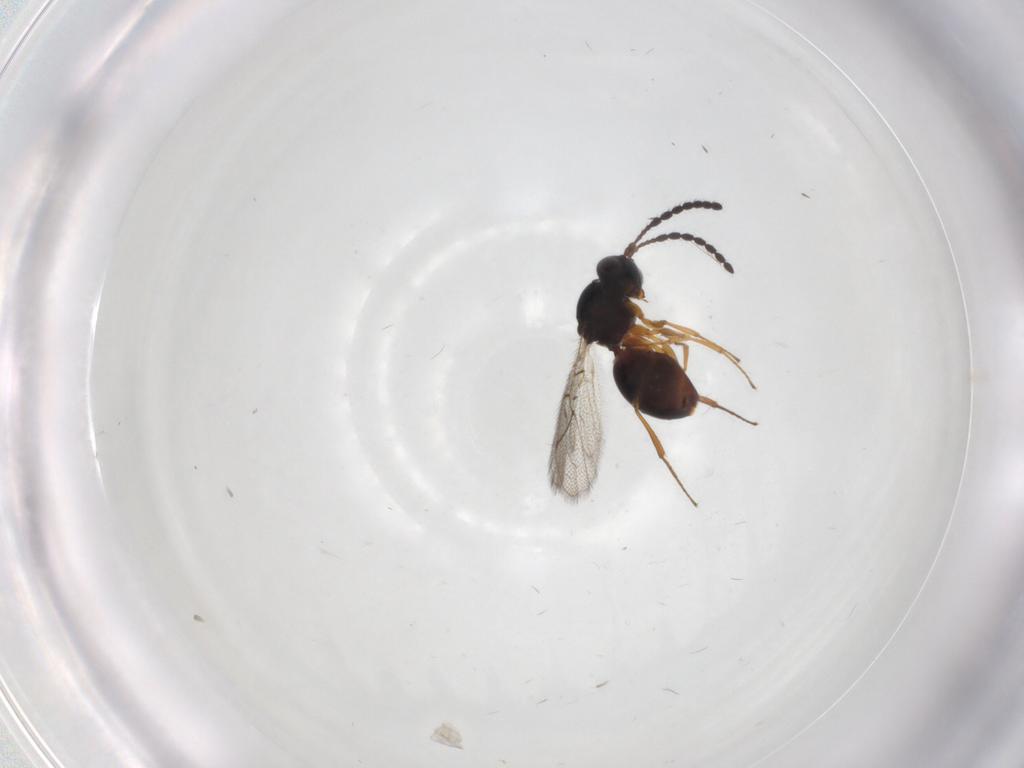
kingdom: Animalia
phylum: Arthropoda
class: Insecta
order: Hymenoptera
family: Figitidae
